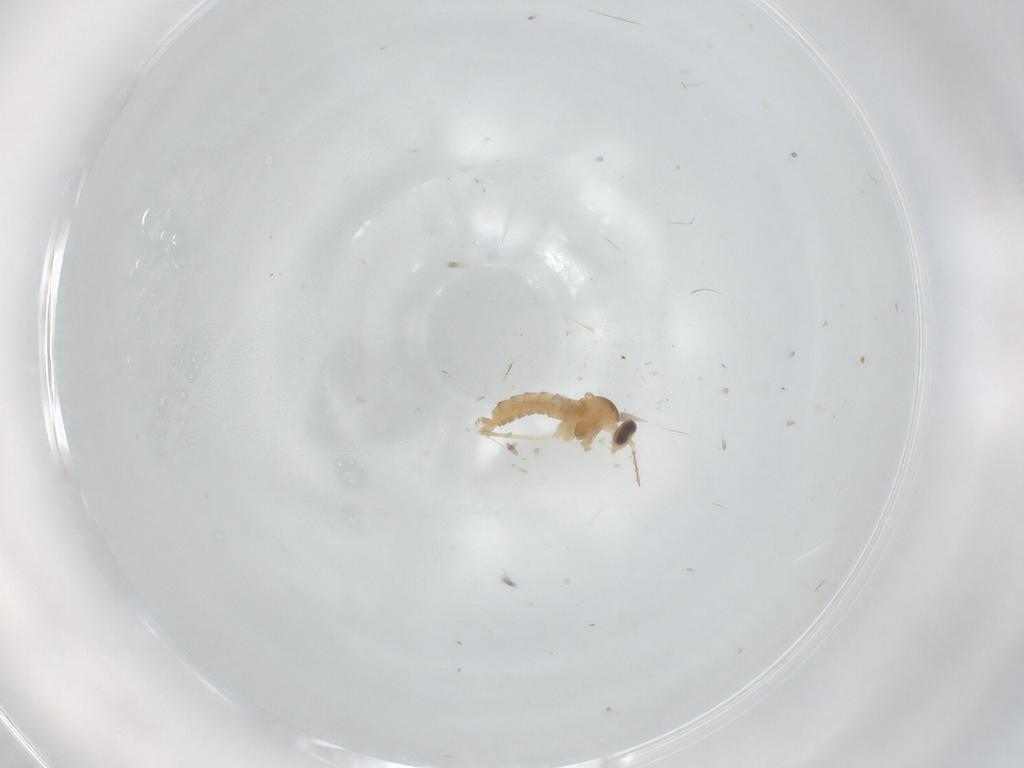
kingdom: Animalia
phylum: Arthropoda
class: Insecta
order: Diptera
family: Cecidomyiidae
